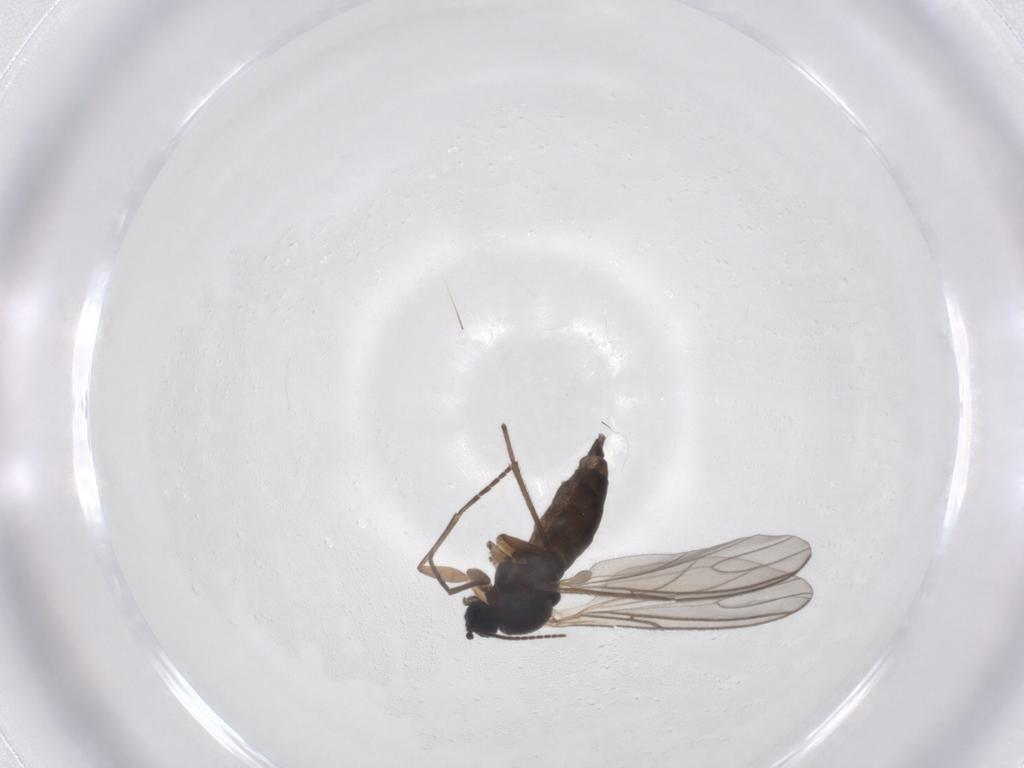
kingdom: Animalia
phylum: Arthropoda
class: Insecta
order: Diptera
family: Sciaridae
